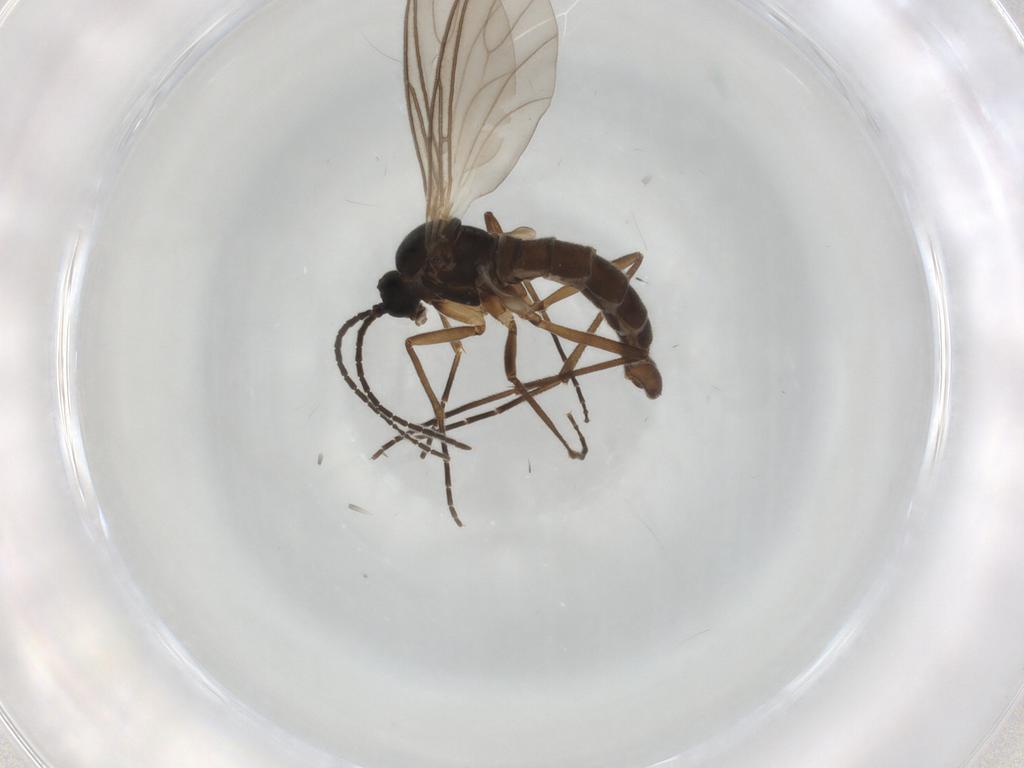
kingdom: Animalia
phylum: Arthropoda
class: Insecta
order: Diptera
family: Sciaridae
